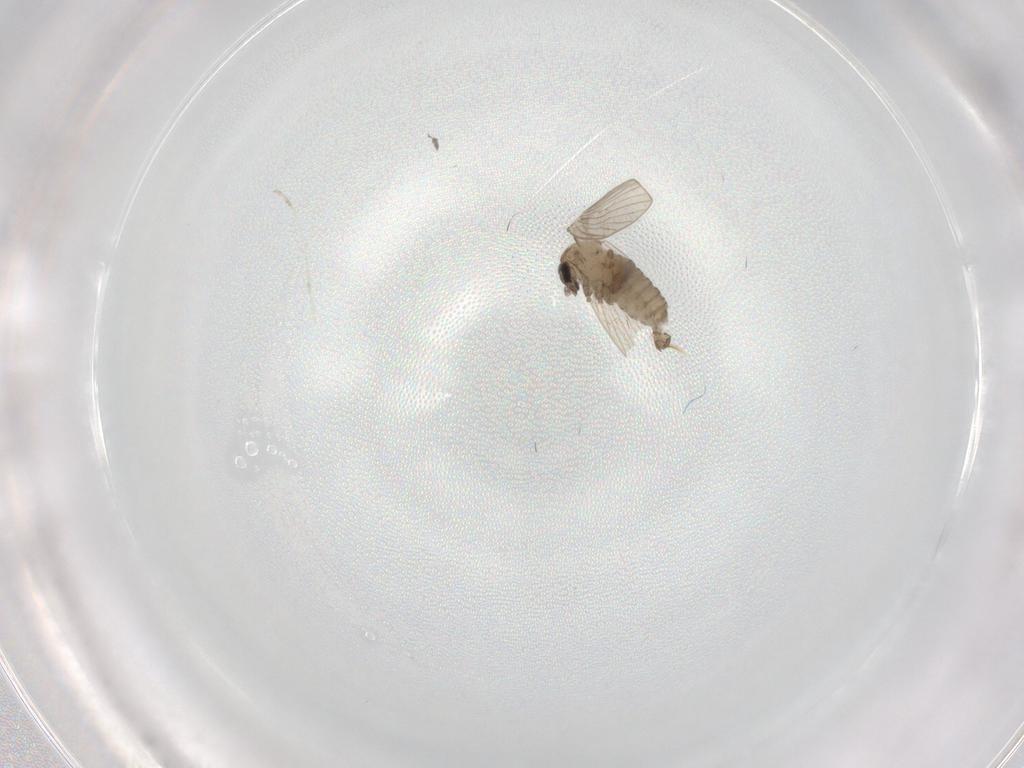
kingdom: Animalia
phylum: Arthropoda
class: Insecta
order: Diptera
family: Psychodidae
